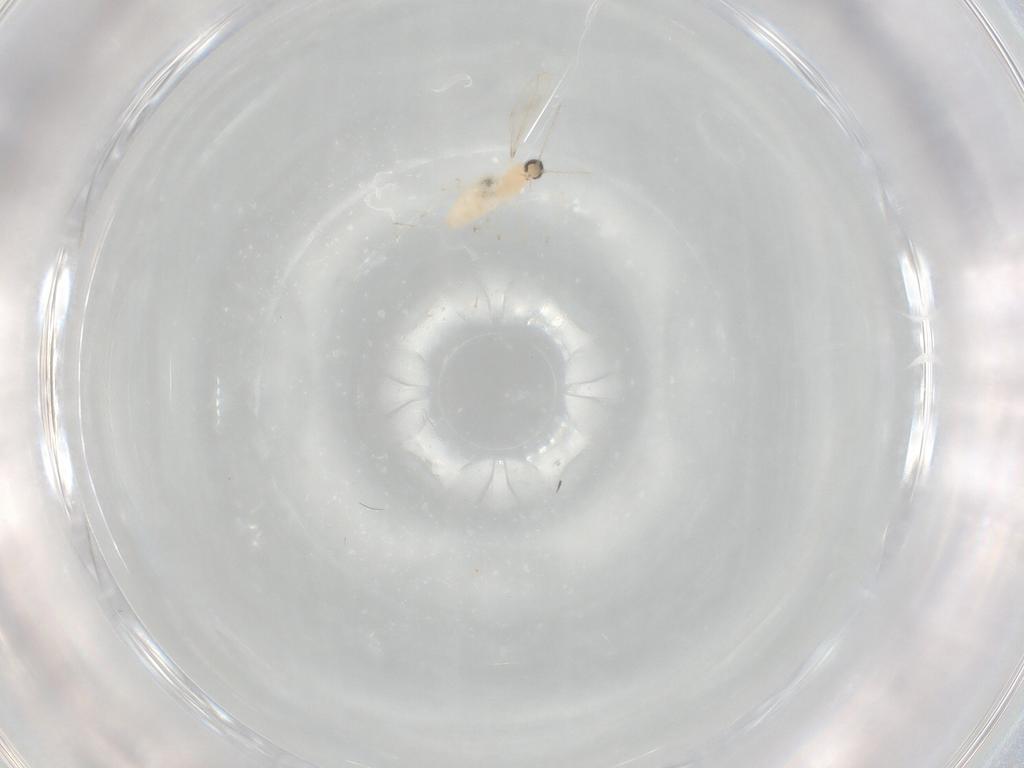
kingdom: Animalia
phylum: Arthropoda
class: Insecta
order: Diptera
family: Cecidomyiidae
